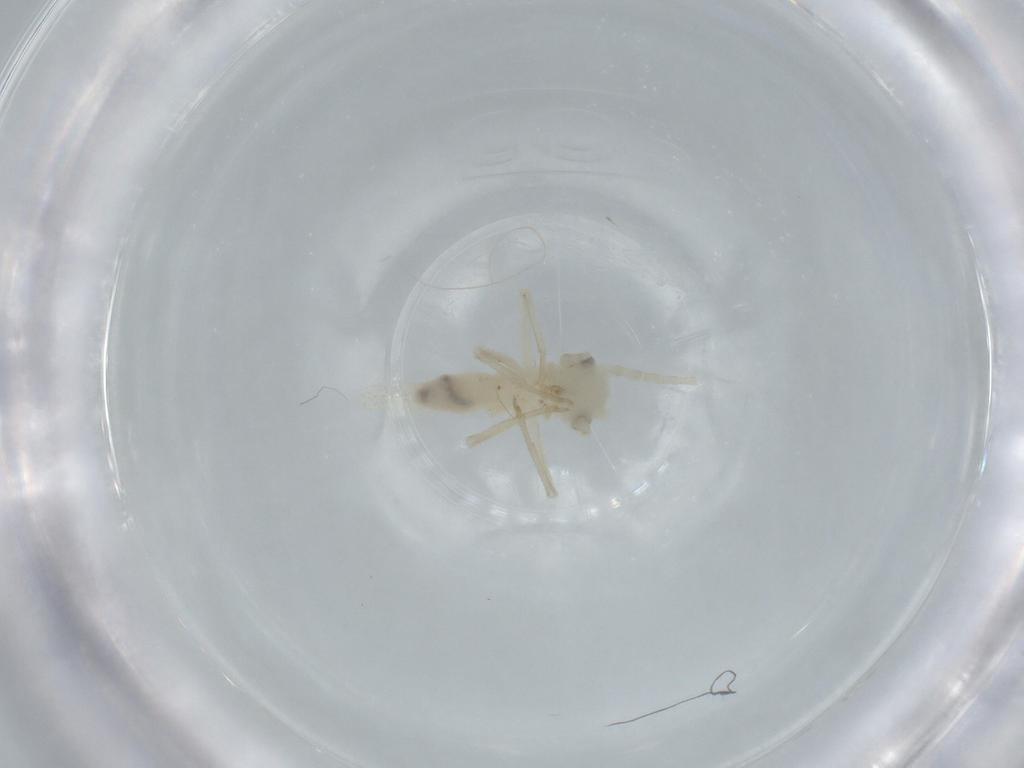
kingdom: Animalia
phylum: Arthropoda
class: Insecta
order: Orthoptera
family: Trigonidiidae
